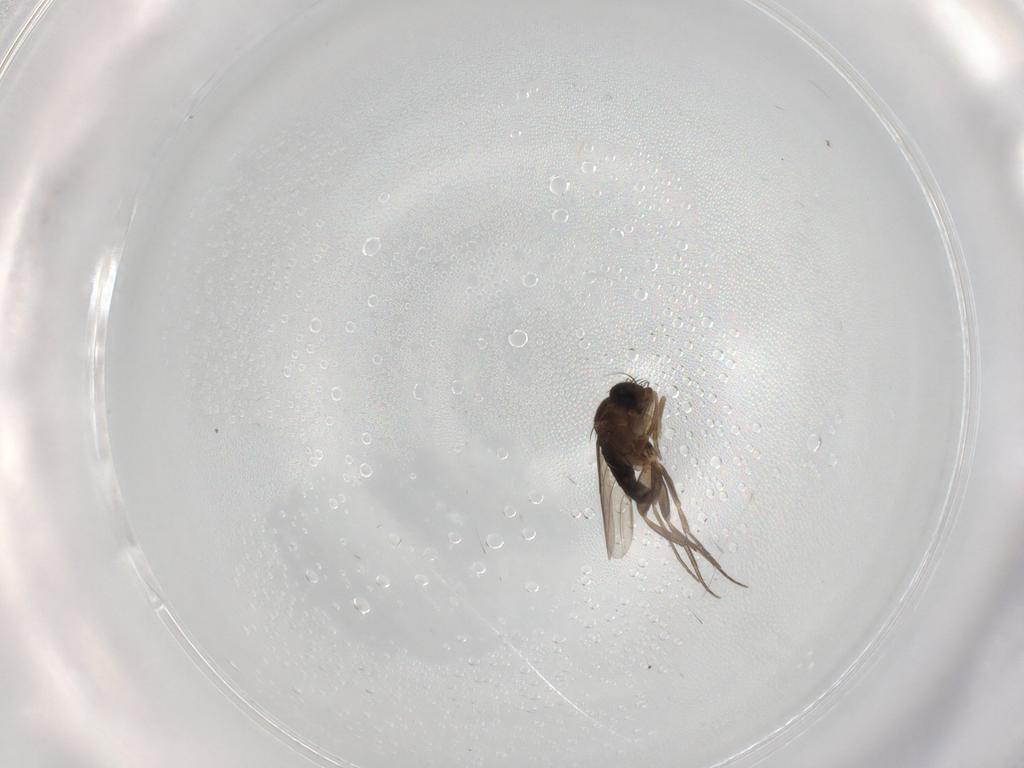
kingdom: Animalia
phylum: Arthropoda
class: Insecta
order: Diptera
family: Phoridae
